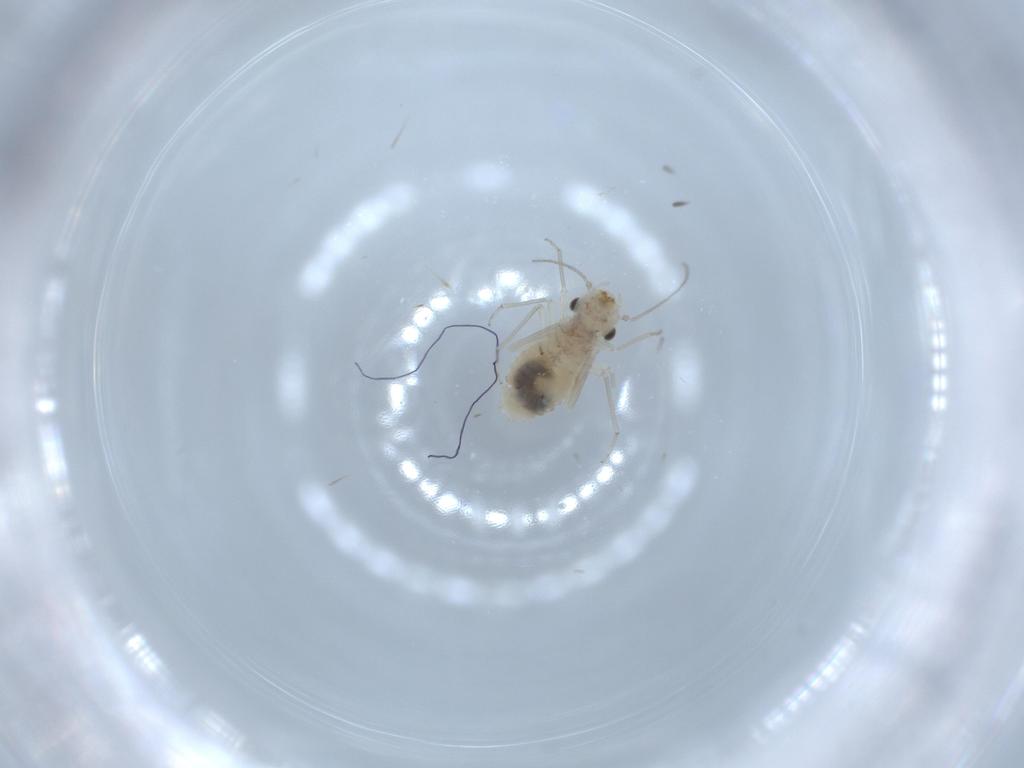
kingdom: Animalia
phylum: Arthropoda
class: Insecta
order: Psocodea
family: Lachesillidae
